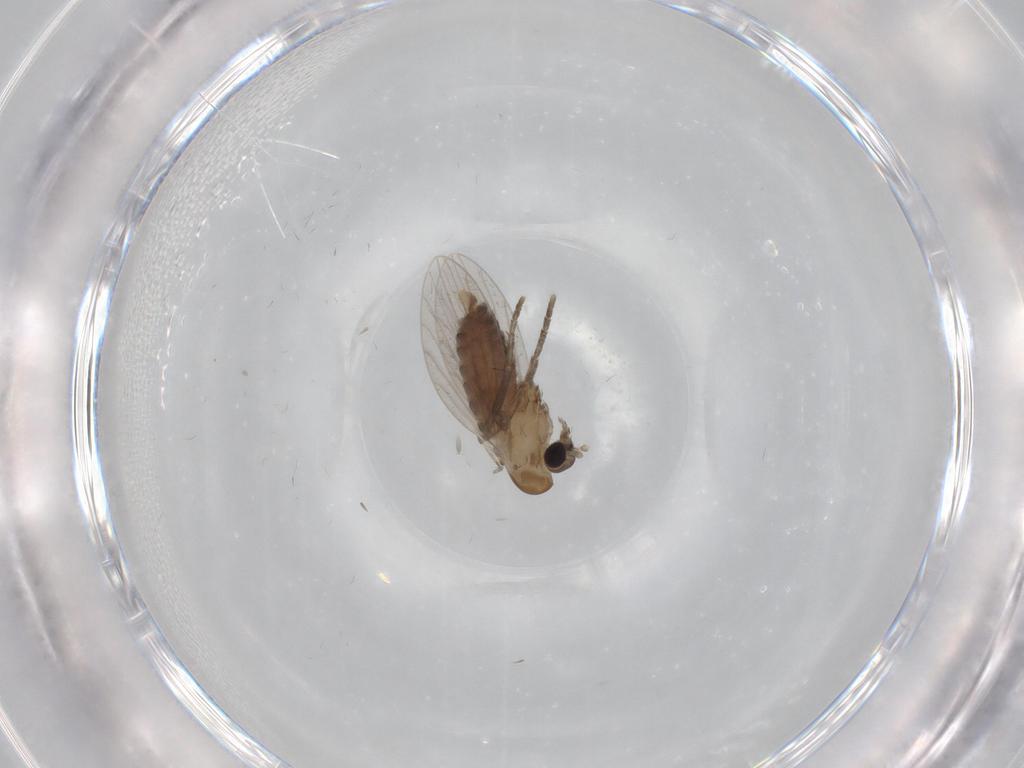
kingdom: Animalia
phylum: Arthropoda
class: Insecta
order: Diptera
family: Psychodidae
